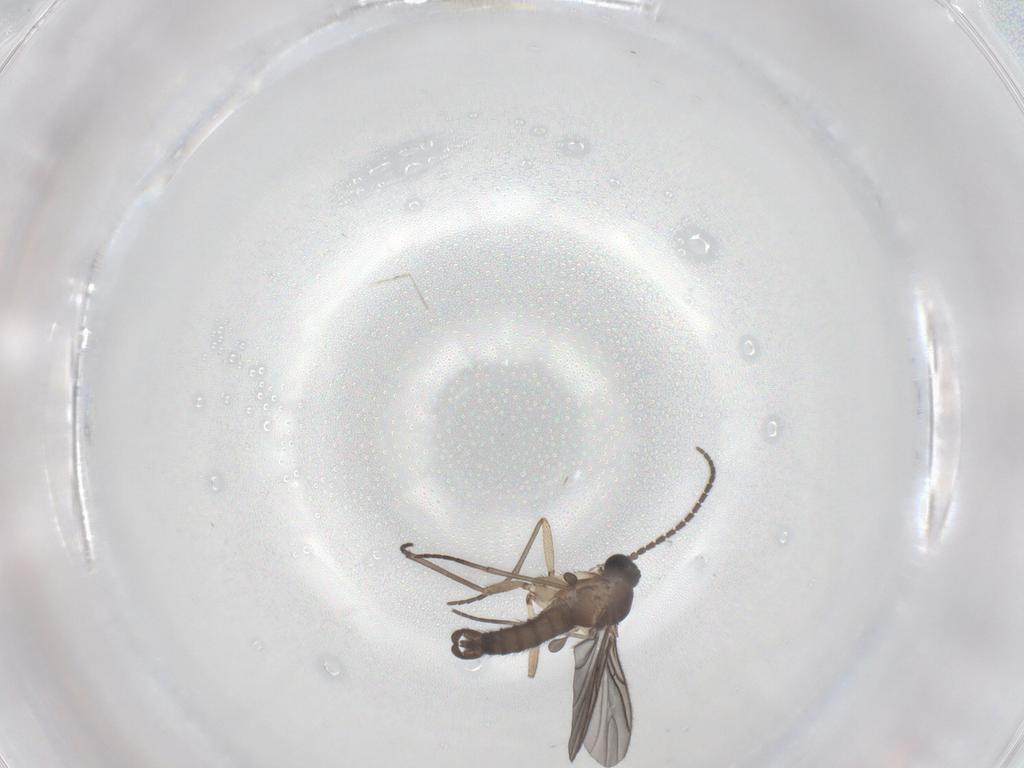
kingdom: Animalia
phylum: Arthropoda
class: Insecta
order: Diptera
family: Sciaridae
